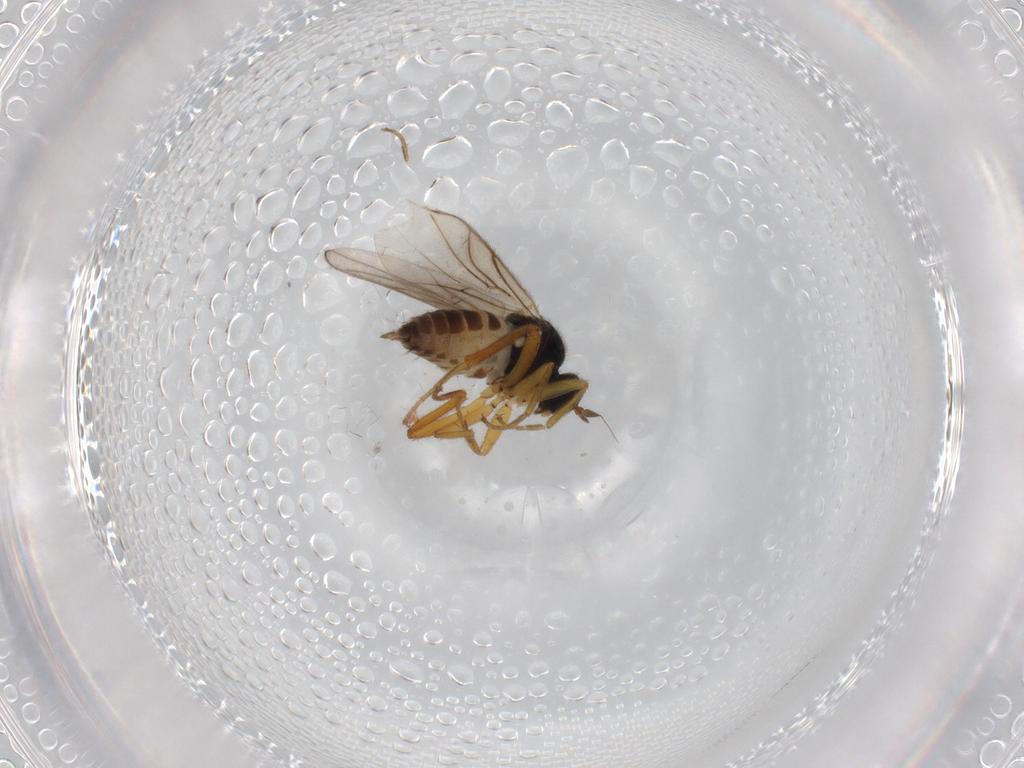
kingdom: Animalia
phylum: Arthropoda
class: Insecta
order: Diptera
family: Hybotidae
